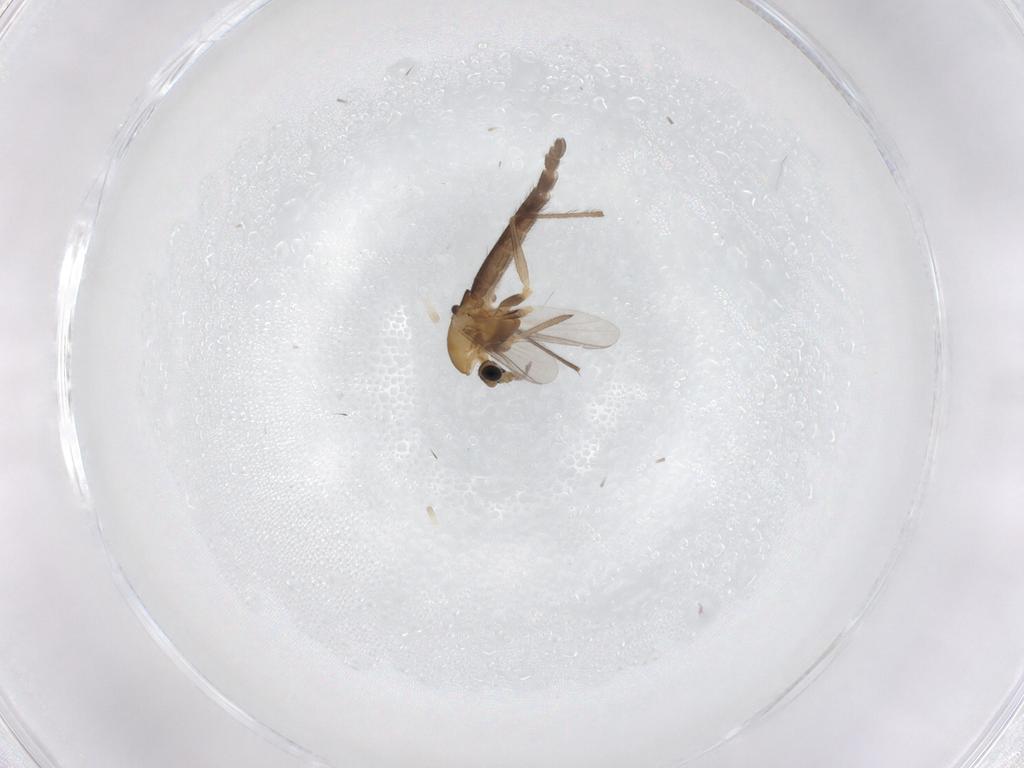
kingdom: Animalia
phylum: Arthropoda
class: Insecta
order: Diptera
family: Chironomidae
